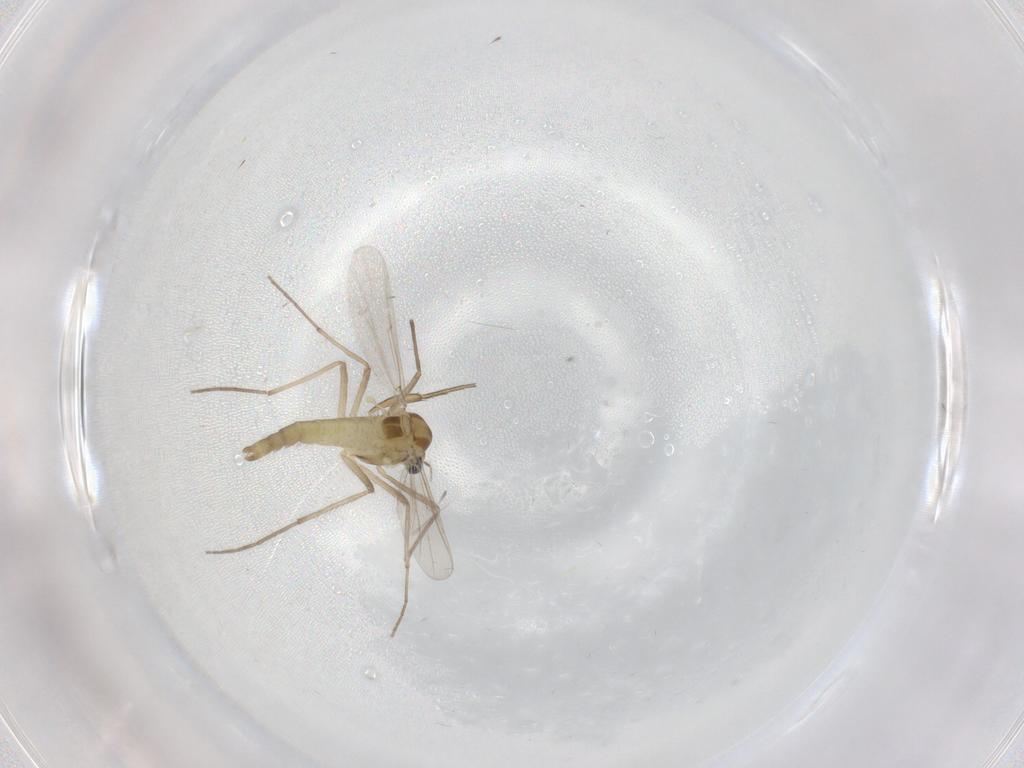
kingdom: Animalia
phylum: Arthropoda
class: Insecta
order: Diptera
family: Chironomidae
